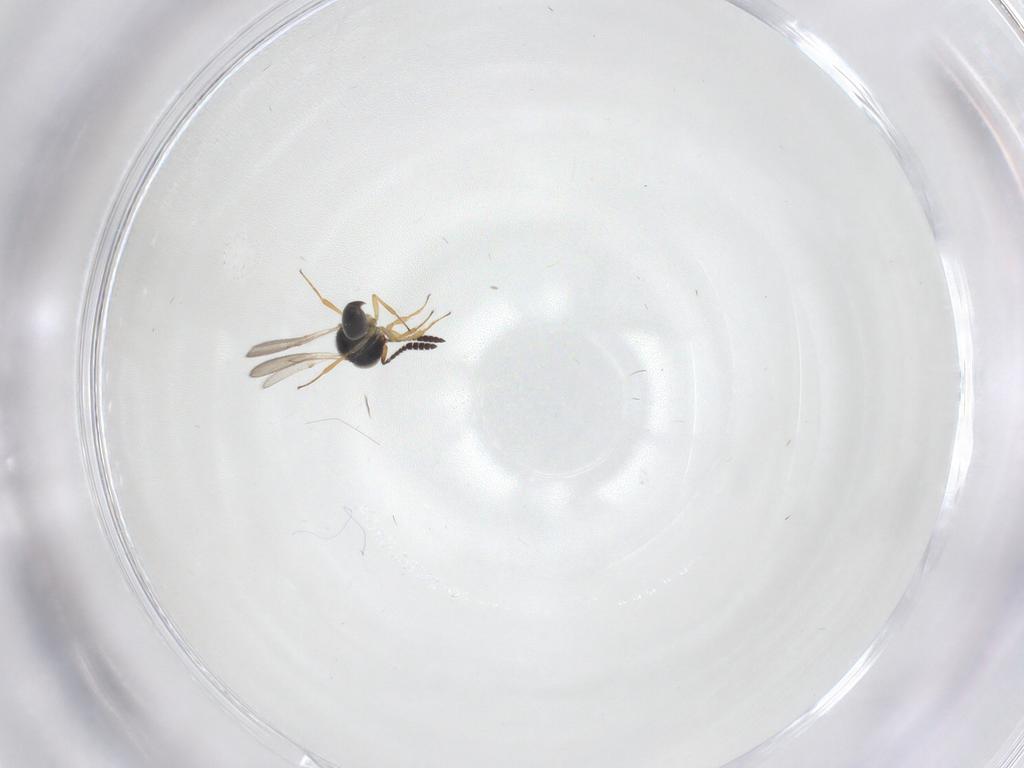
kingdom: Animalia
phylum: Arthropoda
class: Insecta
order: Hymenoptera
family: Scelionidae
